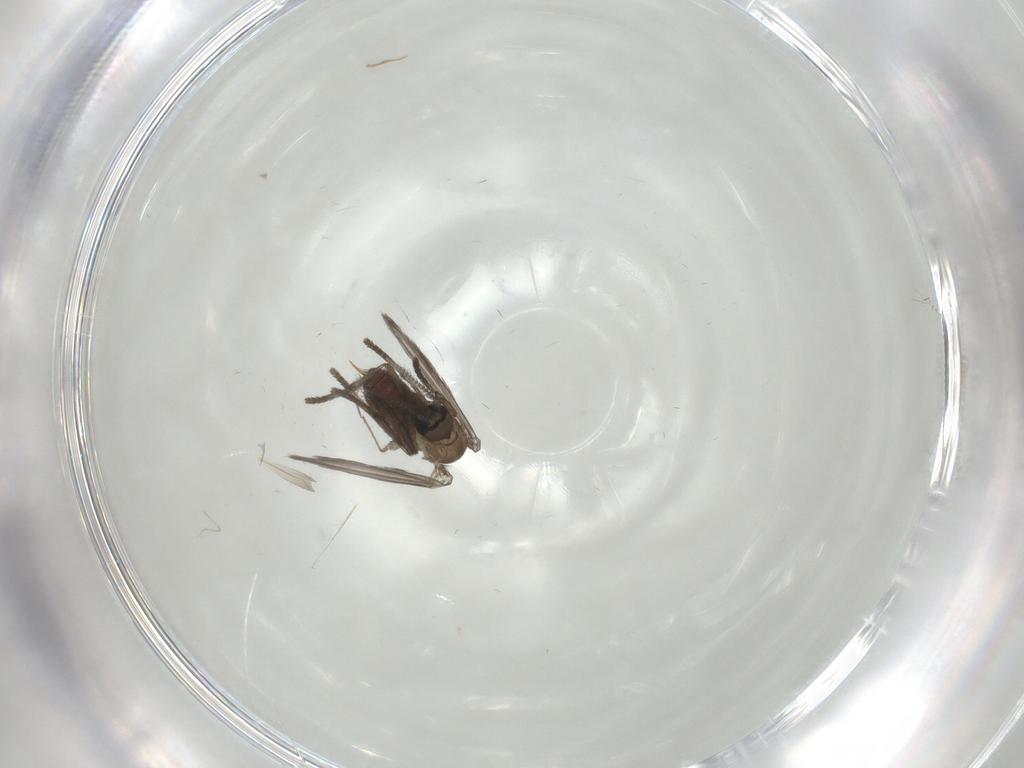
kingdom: Animalia
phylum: Arthropoda
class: Insecta
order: Diptera
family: Psychodidae
